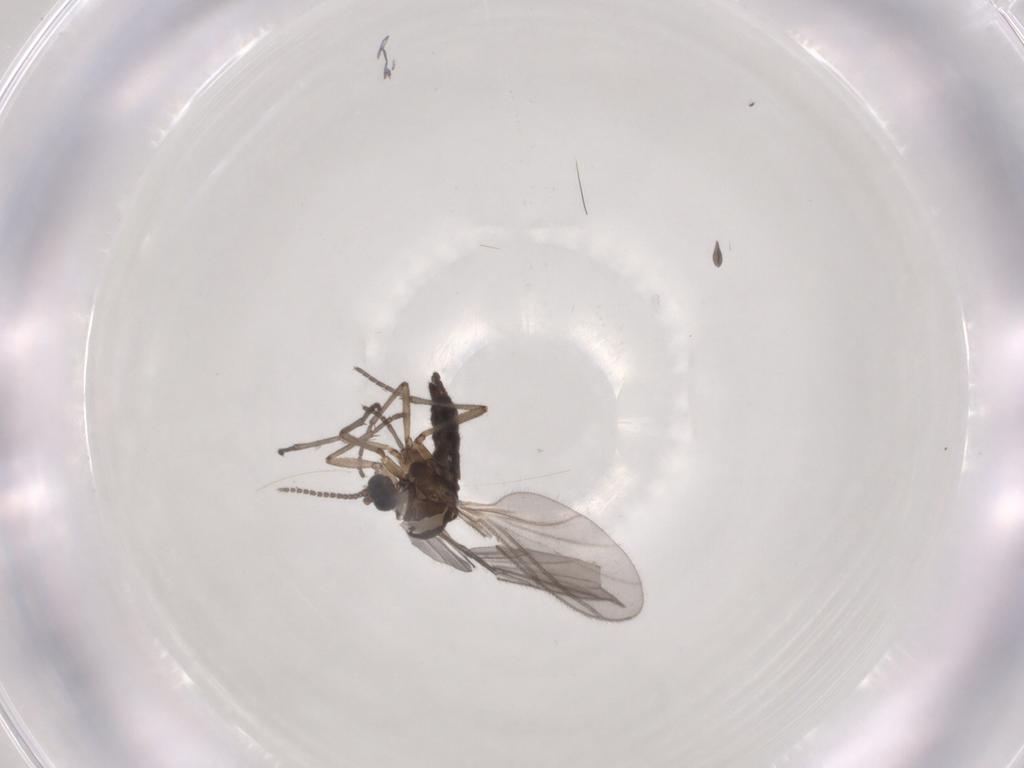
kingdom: Animalia
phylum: Arthropoda
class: Insecta
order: Diptera
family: Sciaridae
